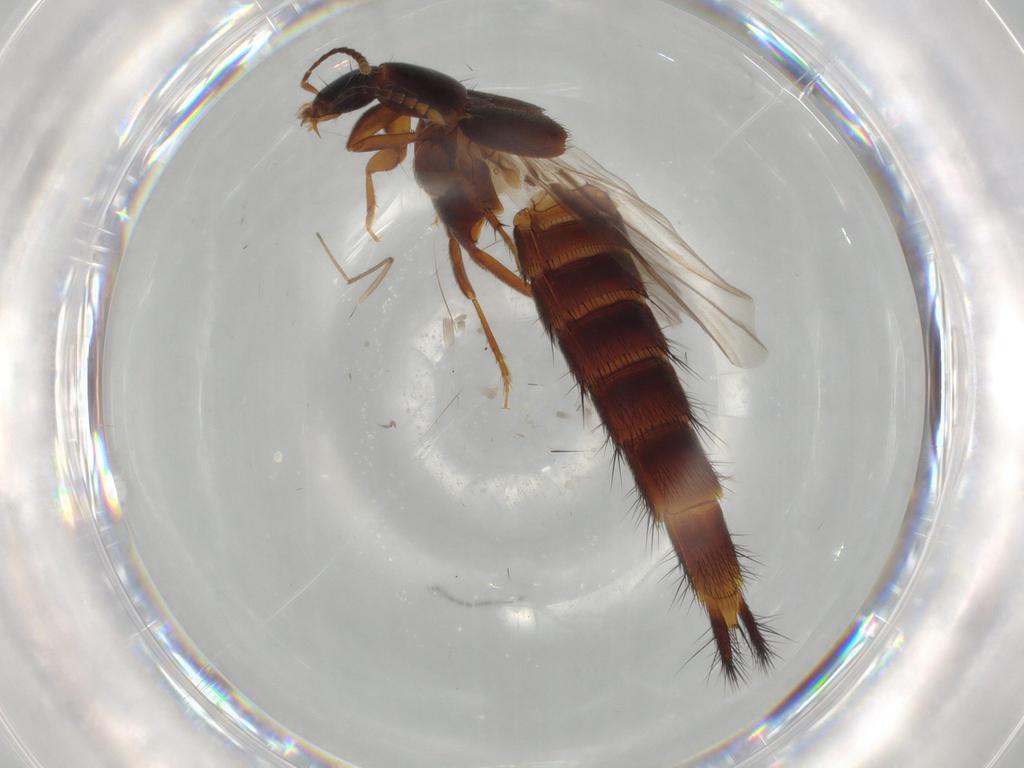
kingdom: Animalia
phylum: Arthropoda
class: Insecta
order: Coleoptera
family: Staphylinidae
